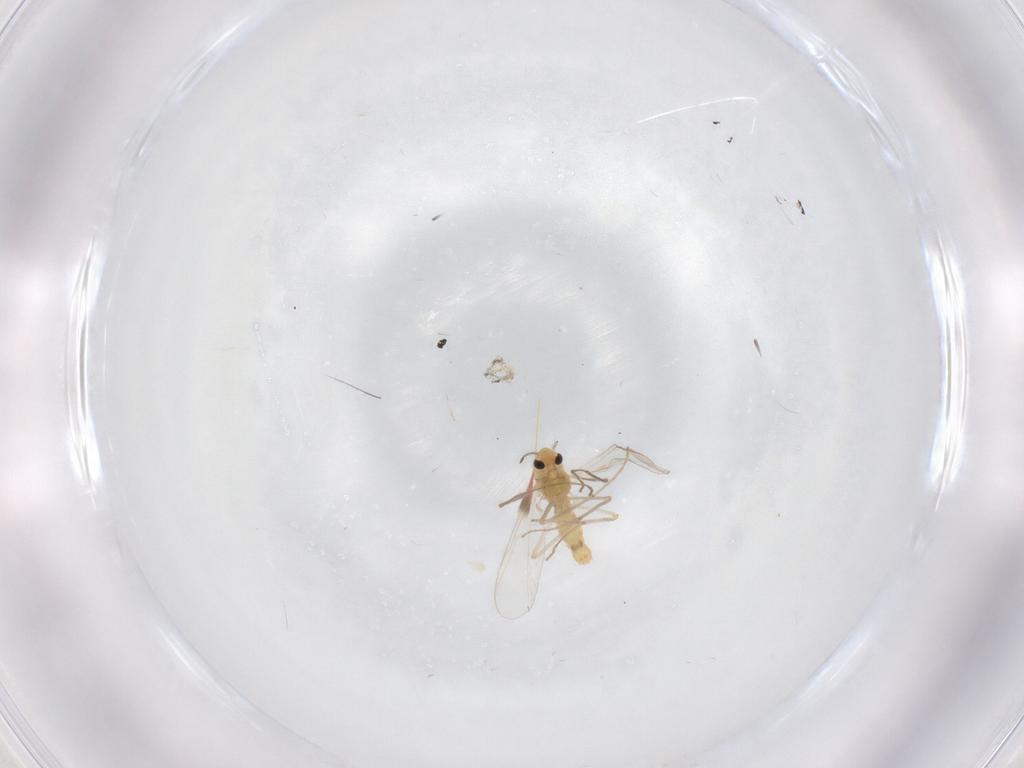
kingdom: Animalia
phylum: Arthropoda
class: Insecta
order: Diptera
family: Chironomidae
